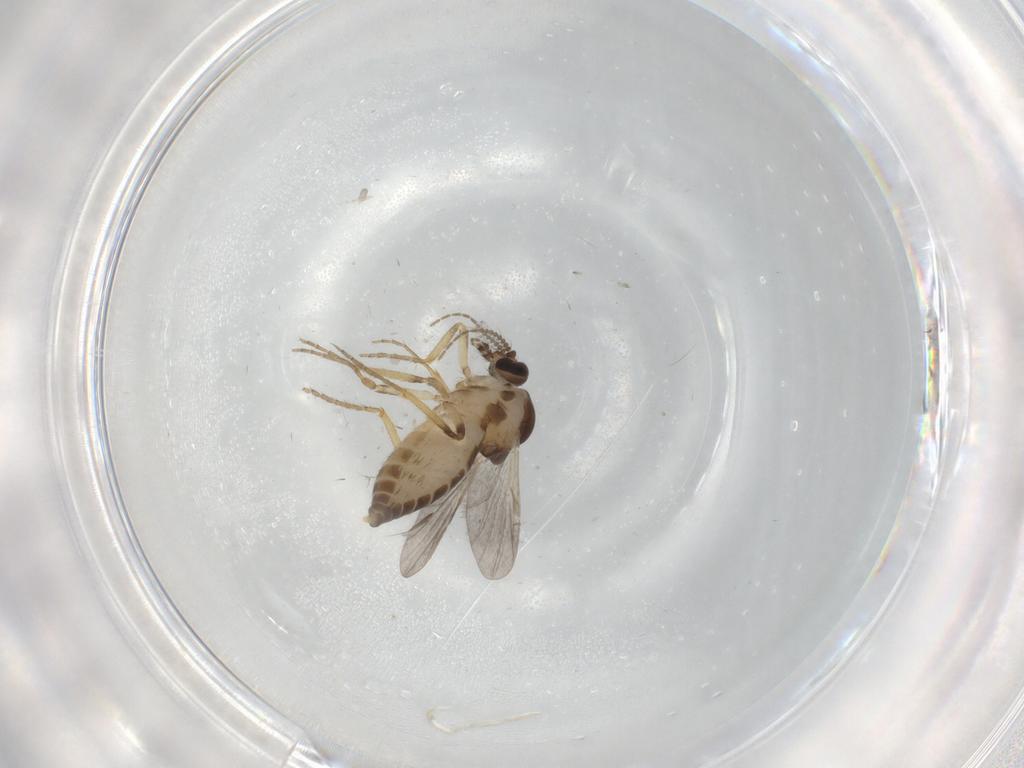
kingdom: Animalia
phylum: Arthropoda
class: Insecta
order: Diptera
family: Ceratopogonidae
